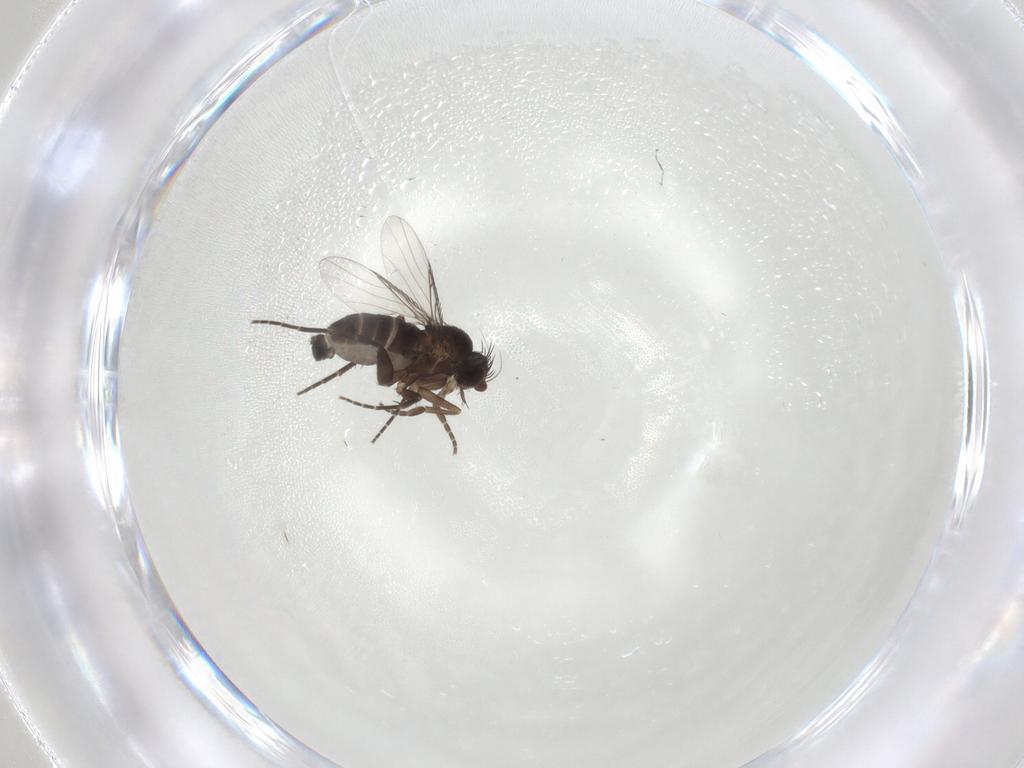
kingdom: Animalia
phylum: Arthropoda
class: Insecta
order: Diptera
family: Phoridae
